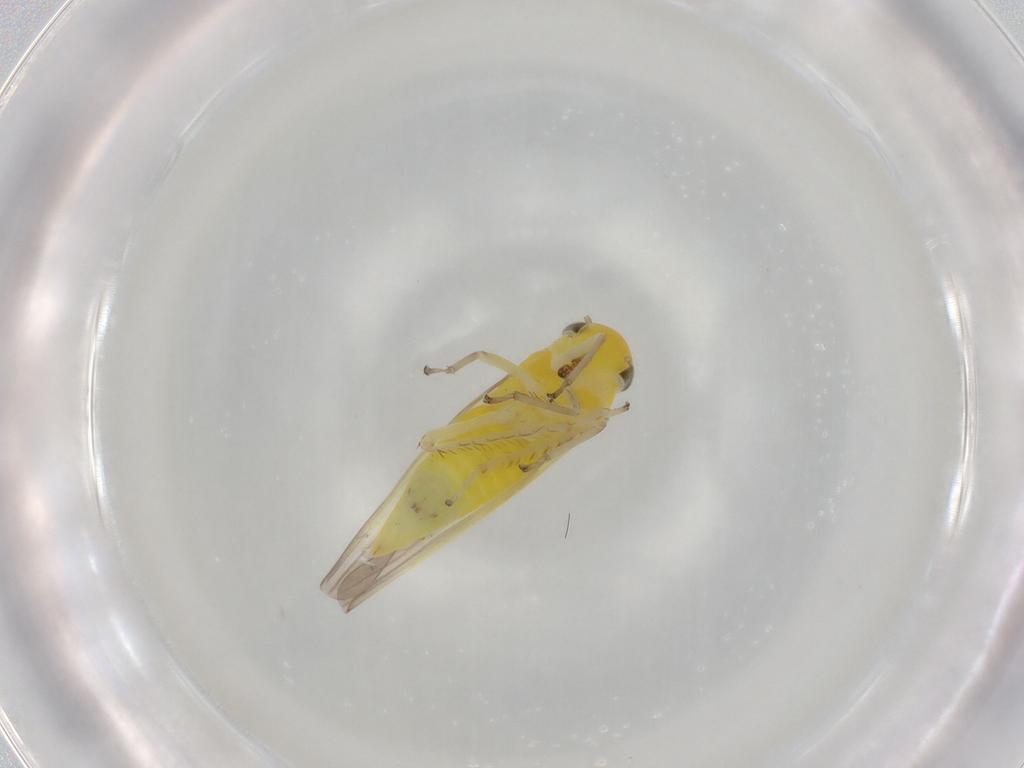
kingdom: Animalia
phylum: Arthropoda
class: Insecta
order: Hemiptera
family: Cicadellidae
